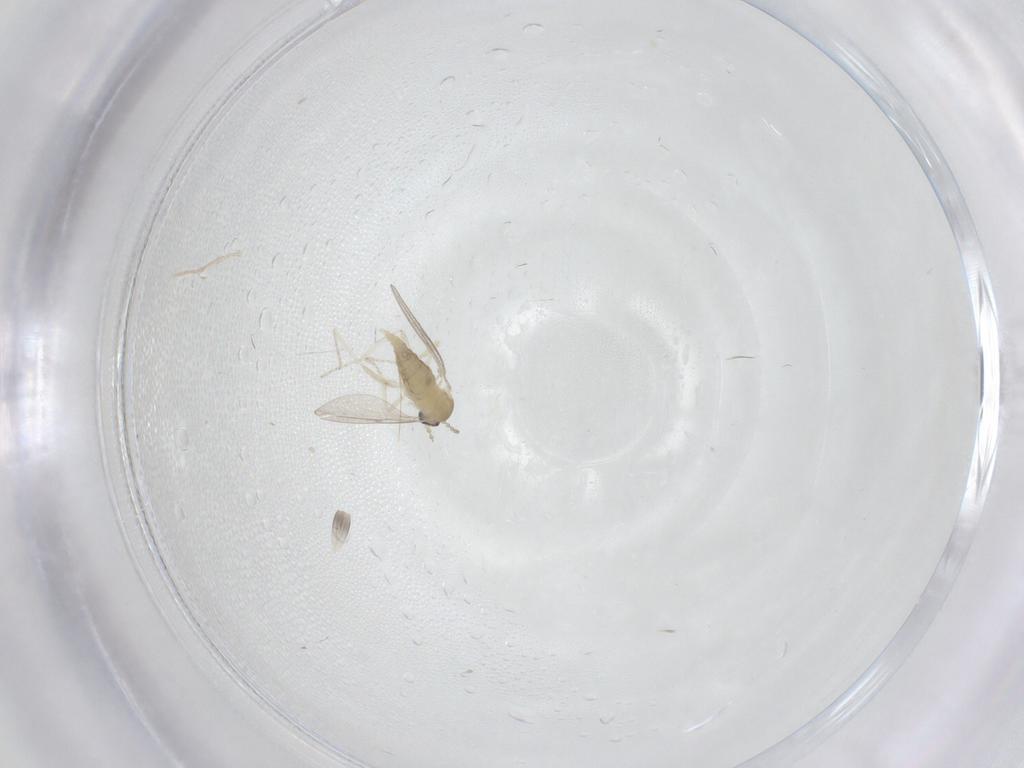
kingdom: Animalia
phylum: Arthropoda
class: Insecta
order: Diptera
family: Cecidomyiidae
